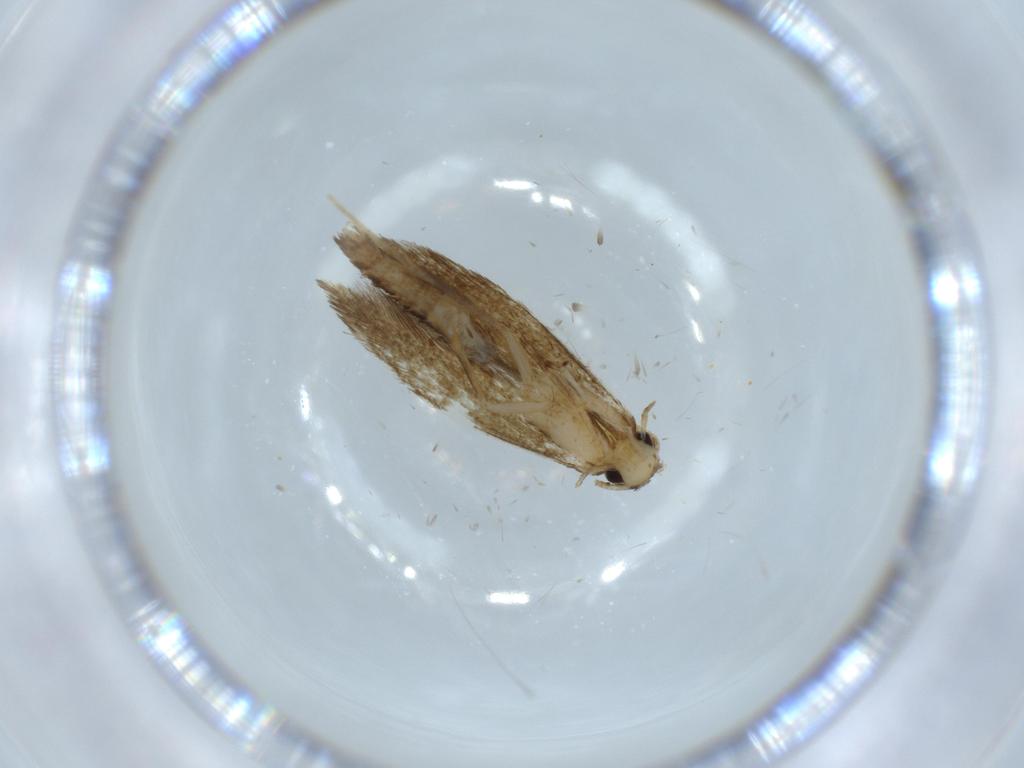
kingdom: Animalia
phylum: Arthropoda
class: Insecta
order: Lepidoptera
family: Tineidae
